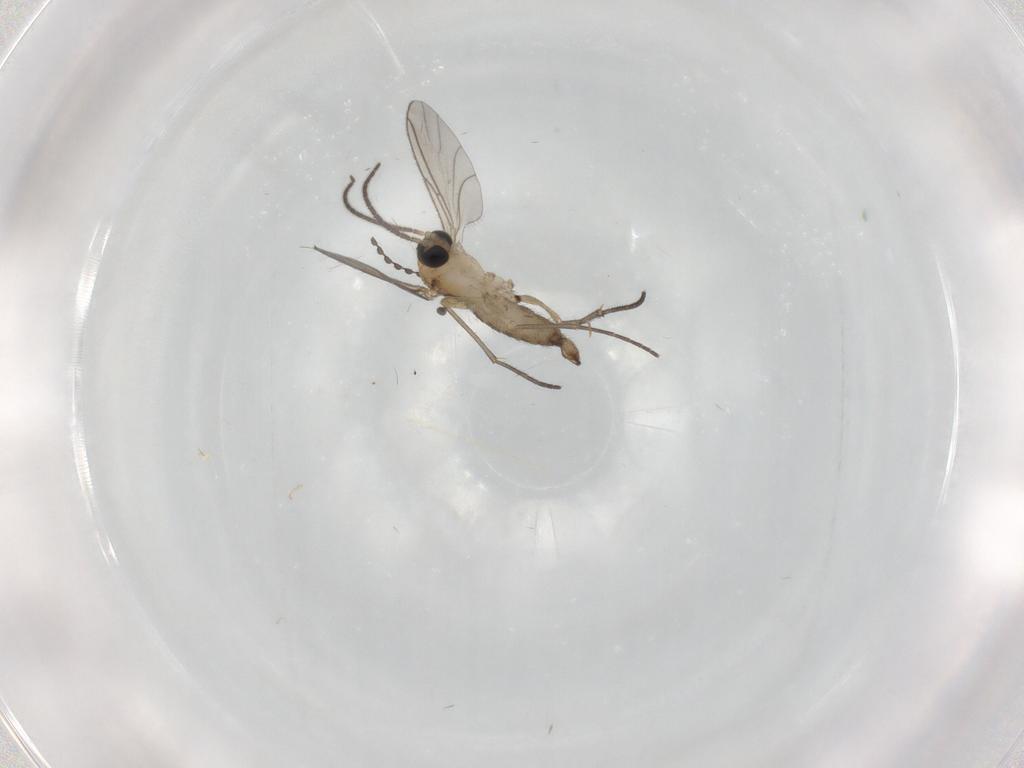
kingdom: Animalia
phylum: Arthropoda
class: Insecta
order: Diptera
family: Sciaridae
